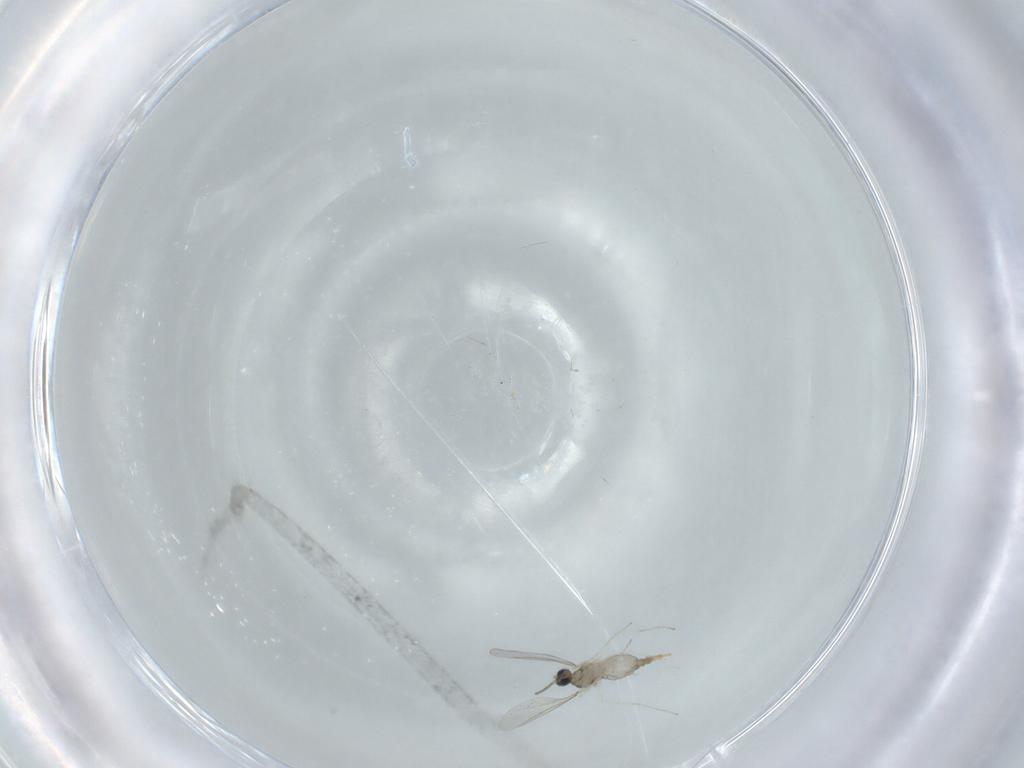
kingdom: Animalia
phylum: Arthropoda
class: Insecta
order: Diptera
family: Cecidomyiidae
